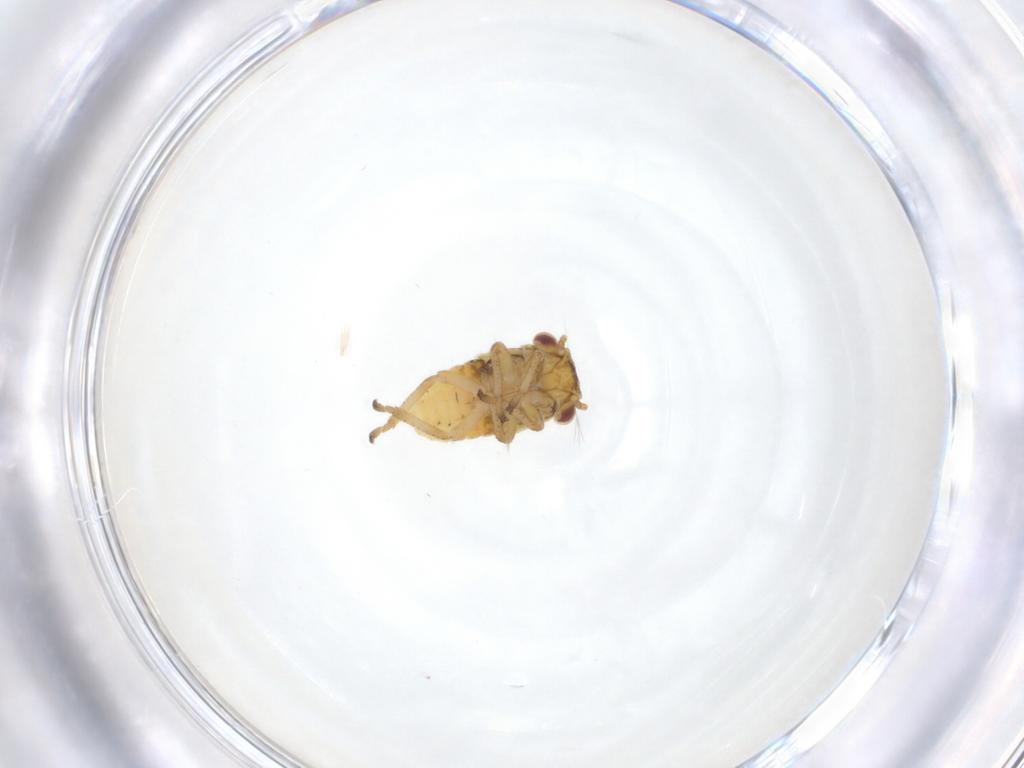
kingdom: Animalia
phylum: Arthropoda
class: Insecta
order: Hemiptera
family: Cicadellidae
